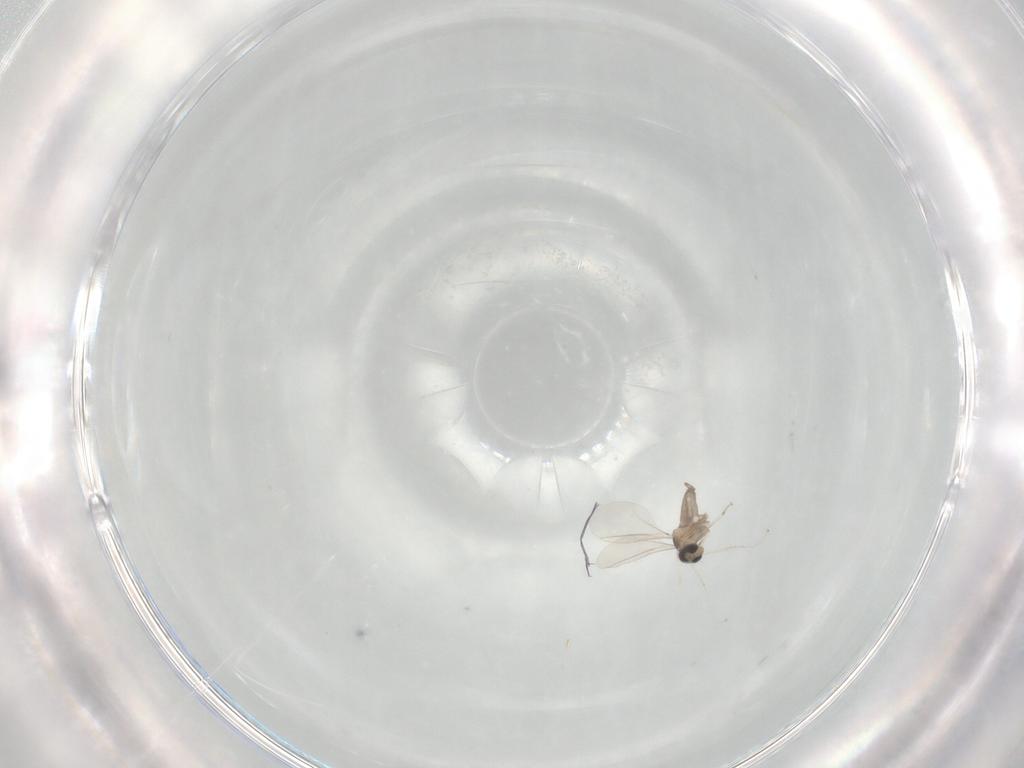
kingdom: Animalia
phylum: Arthropoda
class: Insecta
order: Diptera
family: Cecidomyiidae
